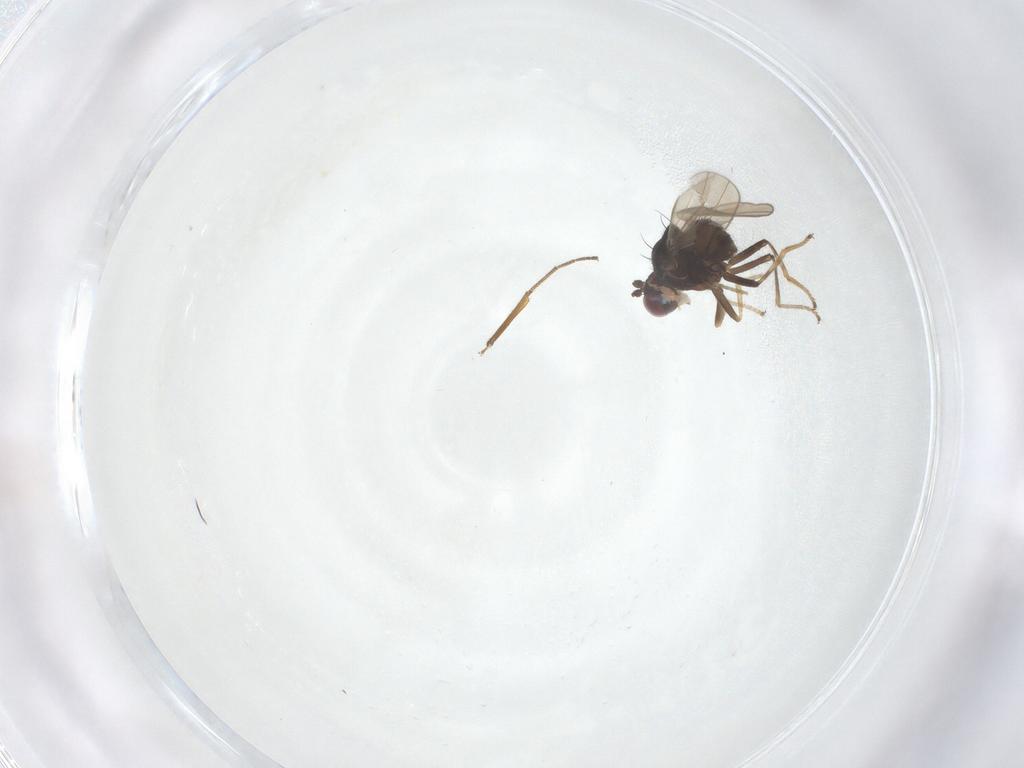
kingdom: Animalia
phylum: Arthropoda
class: Insecta
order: Diptera
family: Ephydridae
